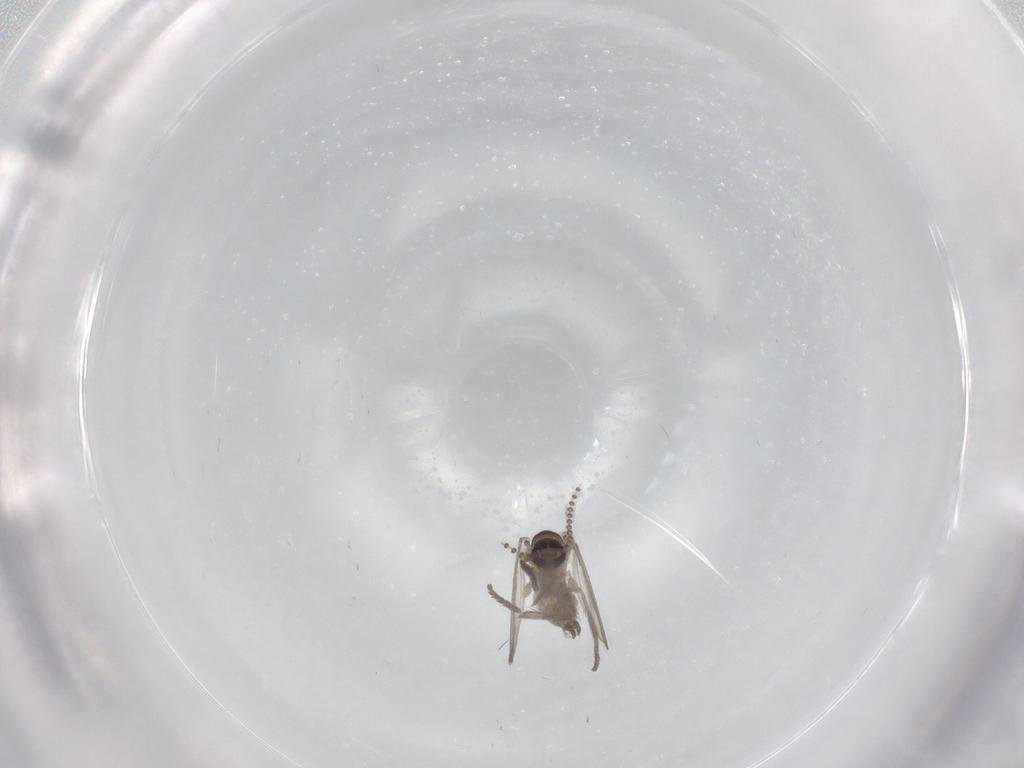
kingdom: Animalia
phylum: Arthropoda
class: Insecta
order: Diptera
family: Psychodidae
